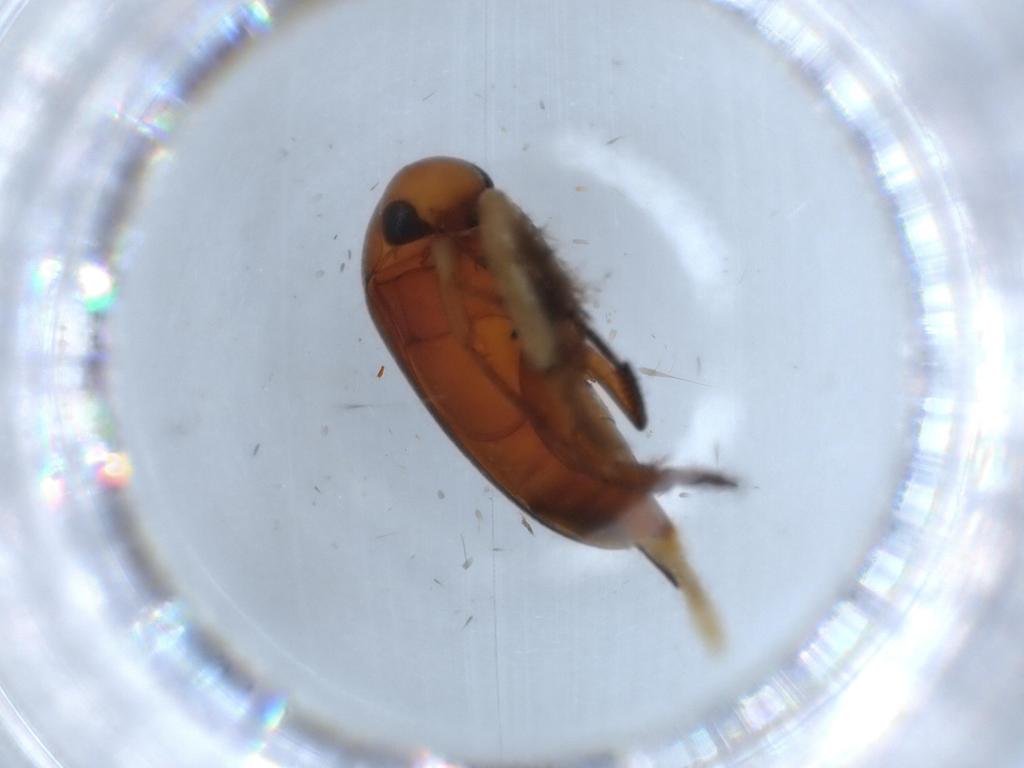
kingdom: Animalia
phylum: Arthropoda
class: Insecta
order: Coleoptera
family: Mordellidae
